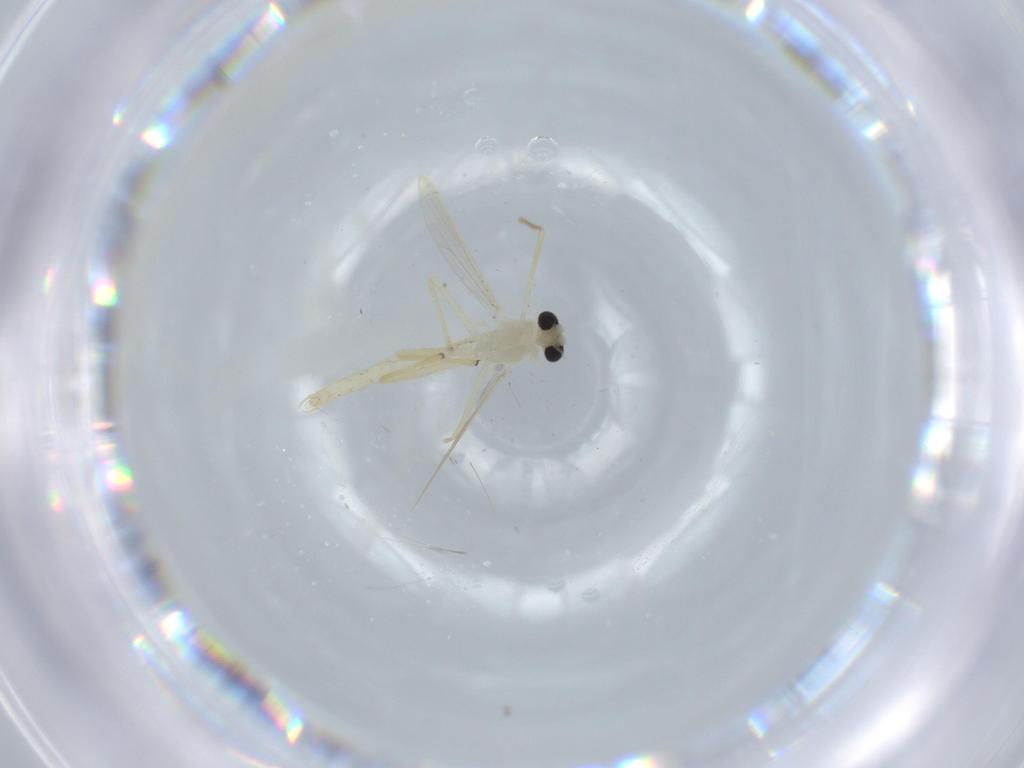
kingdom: Animalia
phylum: Arthropoda
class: Insecta
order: Diptera
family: Chironomidae
